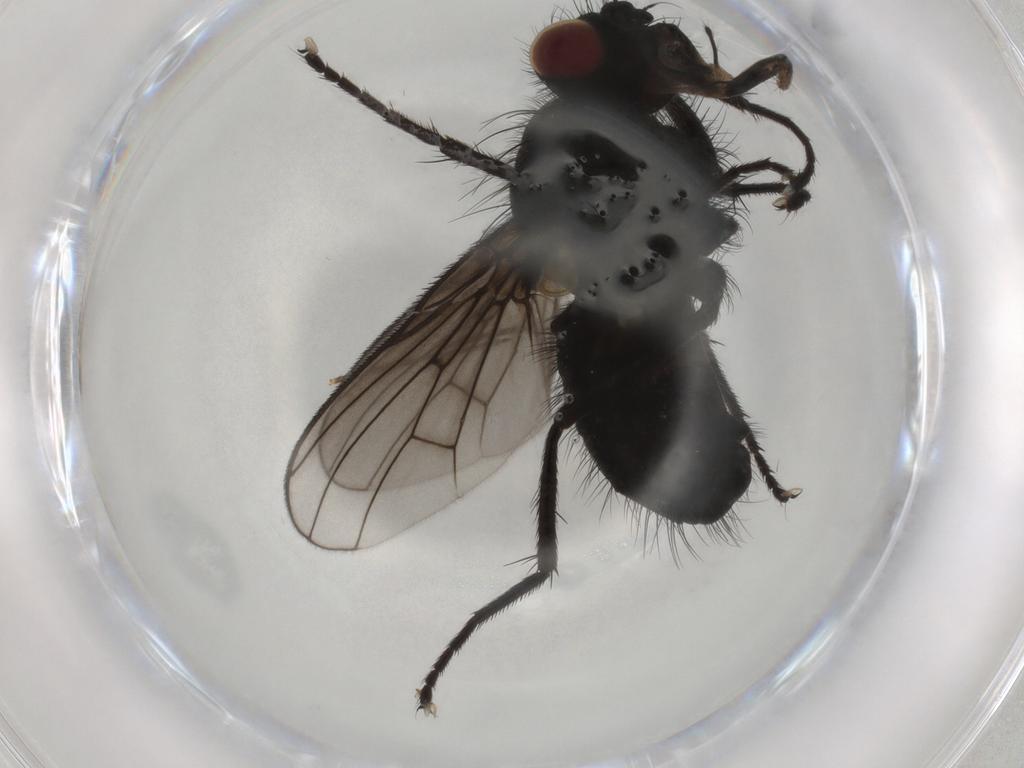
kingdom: Animalia
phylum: Arthropoda
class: Insecta
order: Diptera
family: Muscidae
